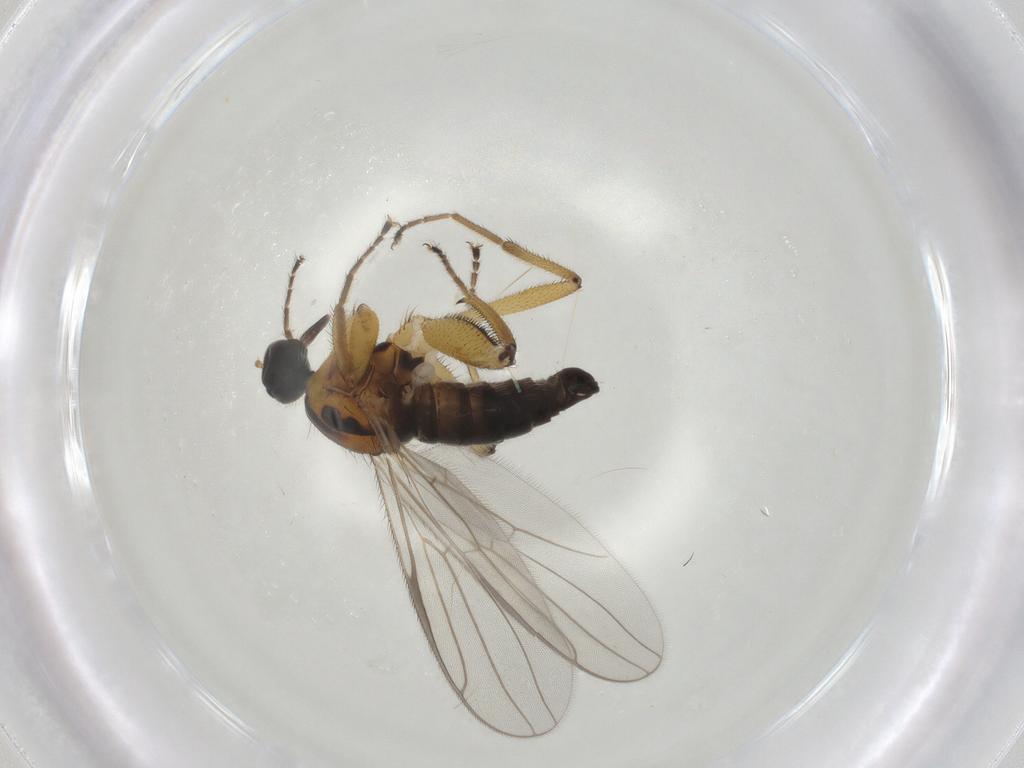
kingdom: Animalia
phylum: Arthropoda
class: Insecta
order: Diptera
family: Hybotidae
